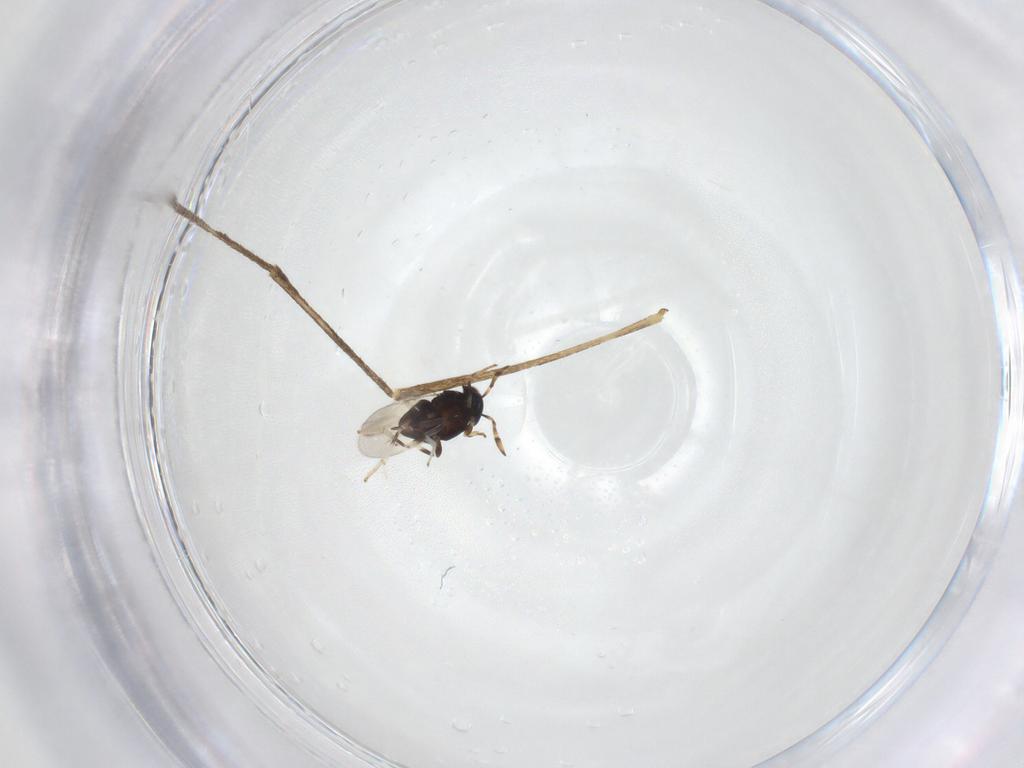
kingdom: Animalia
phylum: Arthropoda
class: Insecta
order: Diptera
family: Culicidae
